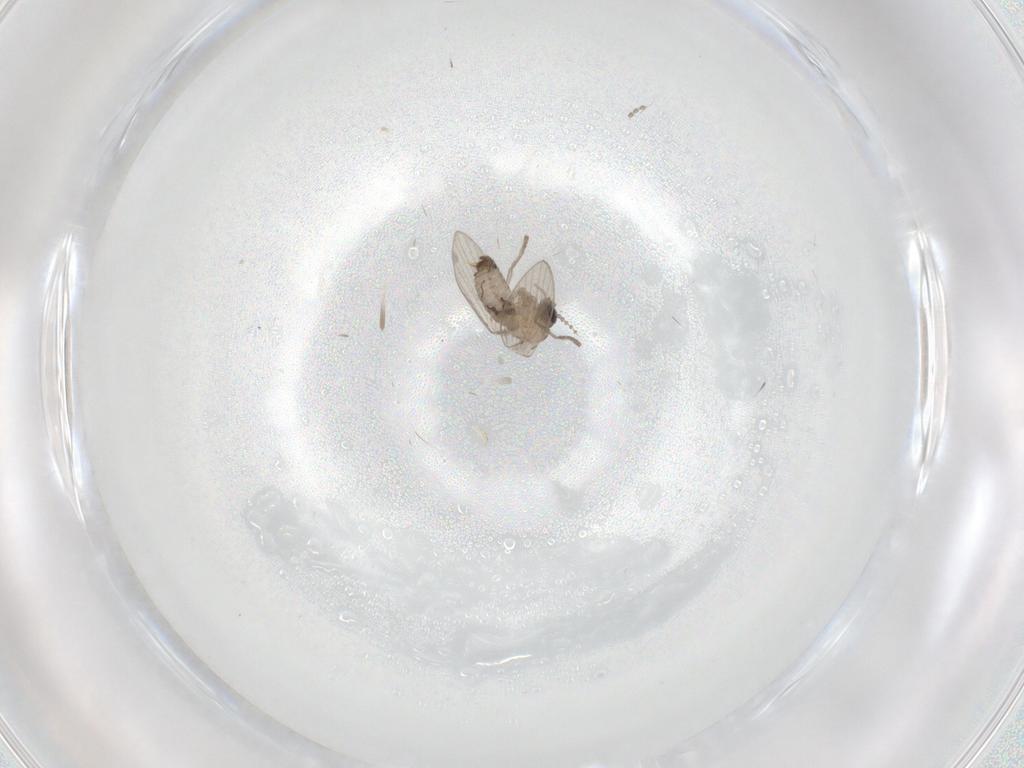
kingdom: Animalia
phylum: Arthropoda
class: Insecta
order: Diptera
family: Psychodidae
